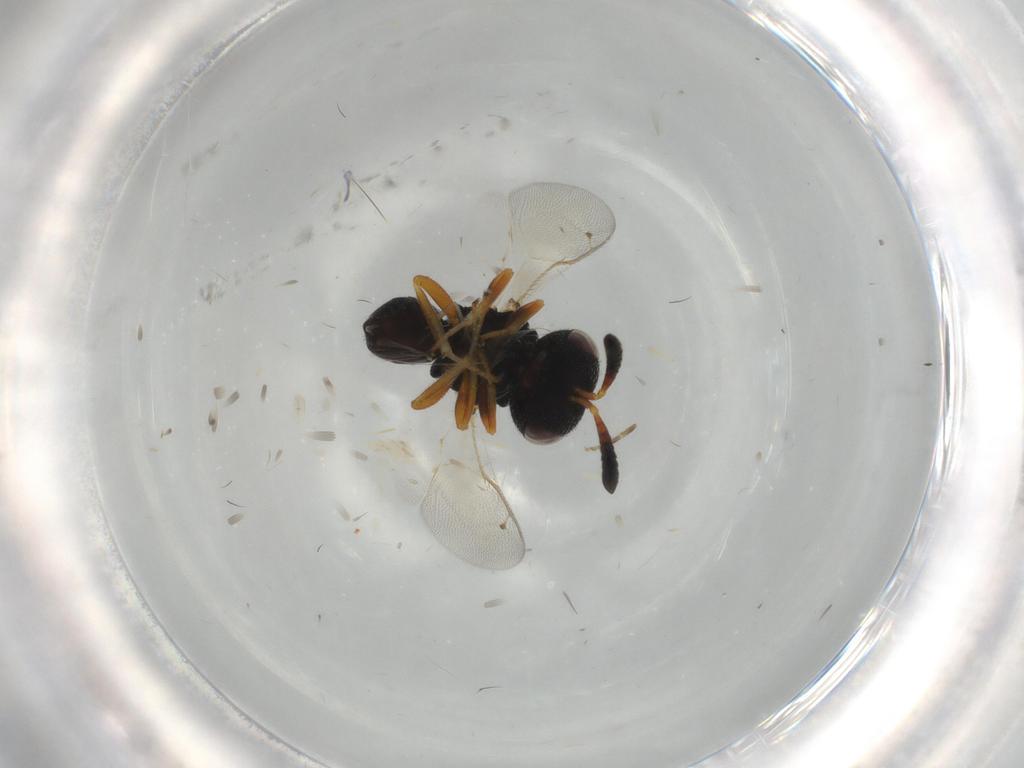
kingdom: Animalia
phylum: Arthropoda
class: Insecta
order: Hymenoptera
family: Agaonidae
